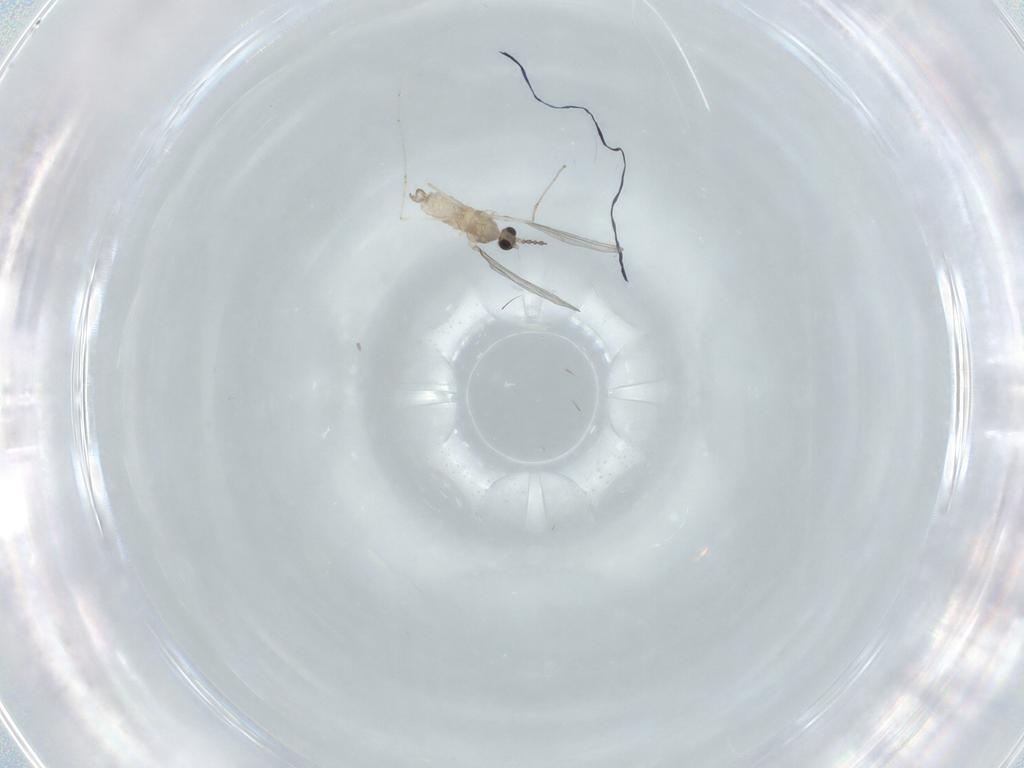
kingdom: Animalia
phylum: Arthropoda
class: Insecta
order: Diptera
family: Cecidomyiidae
